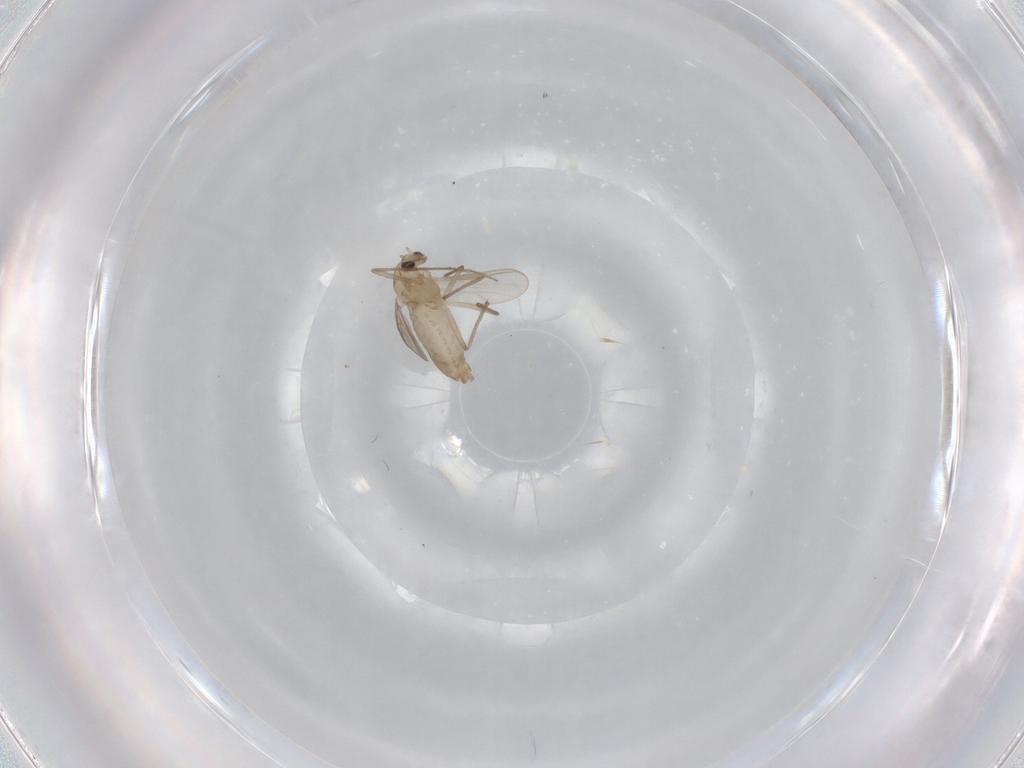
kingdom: Animalia
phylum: Arthropoda
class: Insecta
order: Diptera
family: Chironomidae
